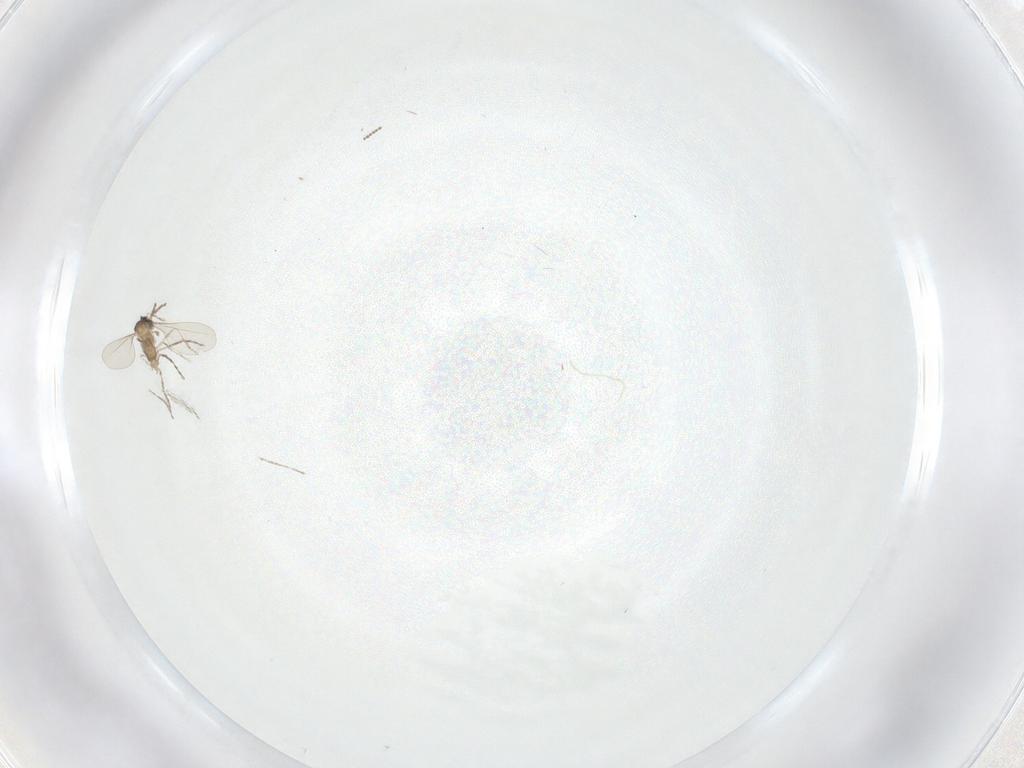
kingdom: Animalia
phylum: Arthropoda
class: Insecta
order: Diptera
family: Cecidomyiidae
